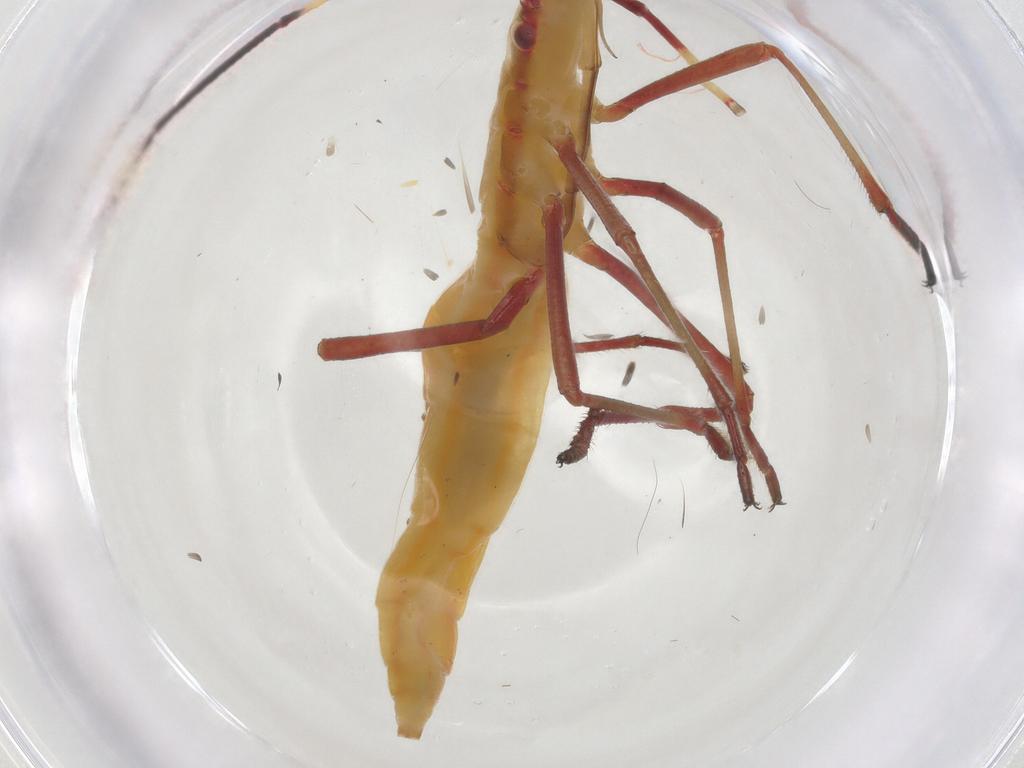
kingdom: Animalia
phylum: Arthropoda
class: Insecta
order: Hemiptera
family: Alydidae
